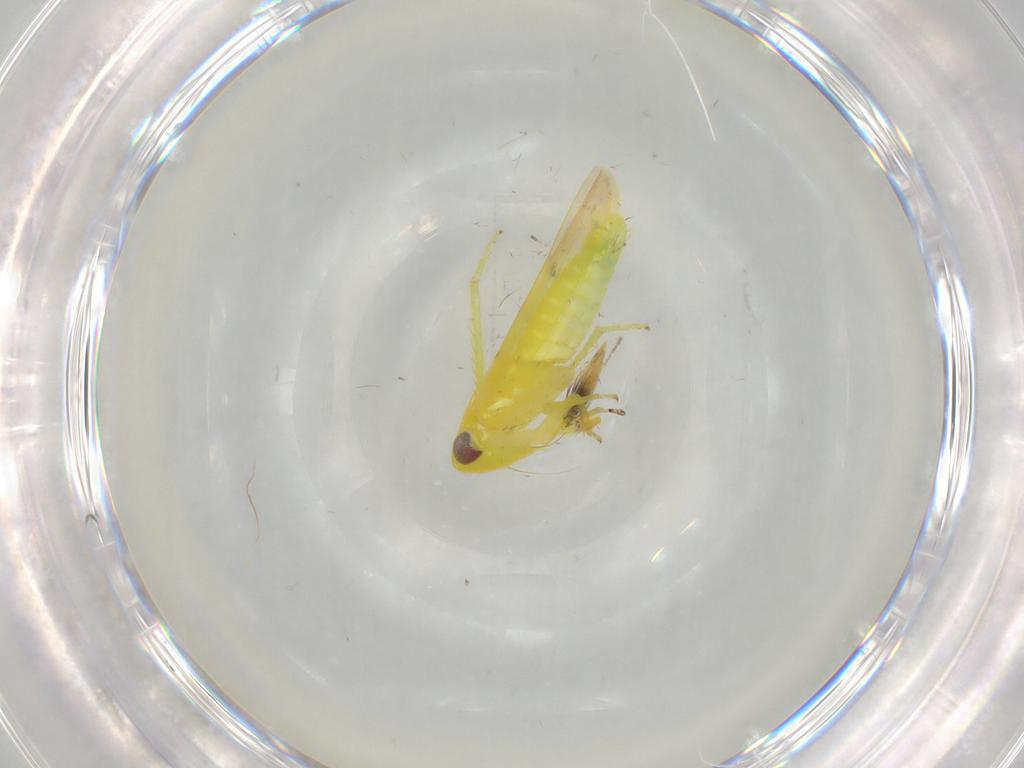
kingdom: Animalia
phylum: Arthropoda
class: Insecta
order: Hemiptera
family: Cicadellidae
